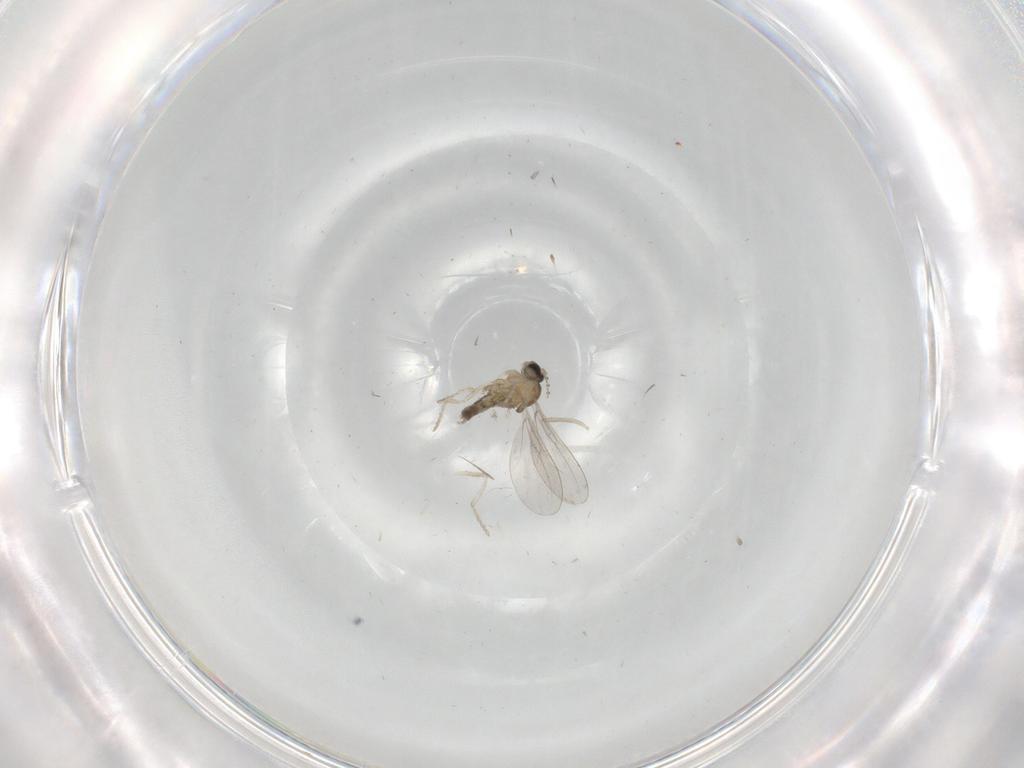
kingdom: Animalia
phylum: Arthropoda
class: Insecta
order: Diptera
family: Cecidomyiidae
